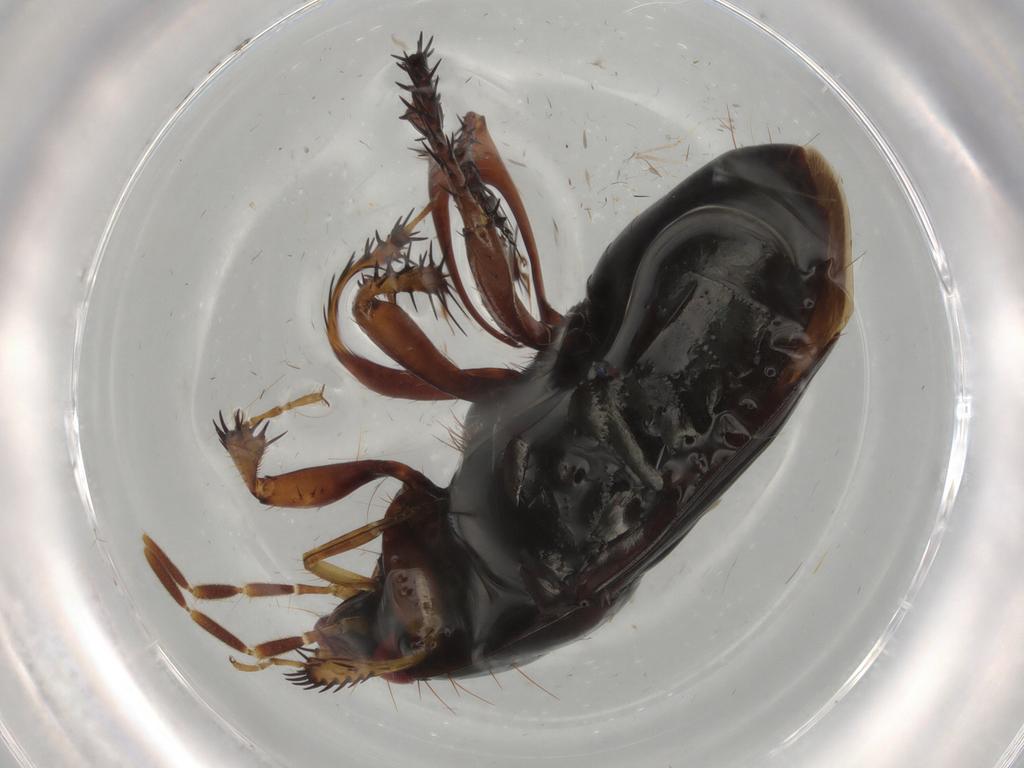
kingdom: Animalia
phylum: Arthropoda
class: Insecta
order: Hemiptera
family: Cydnidae
